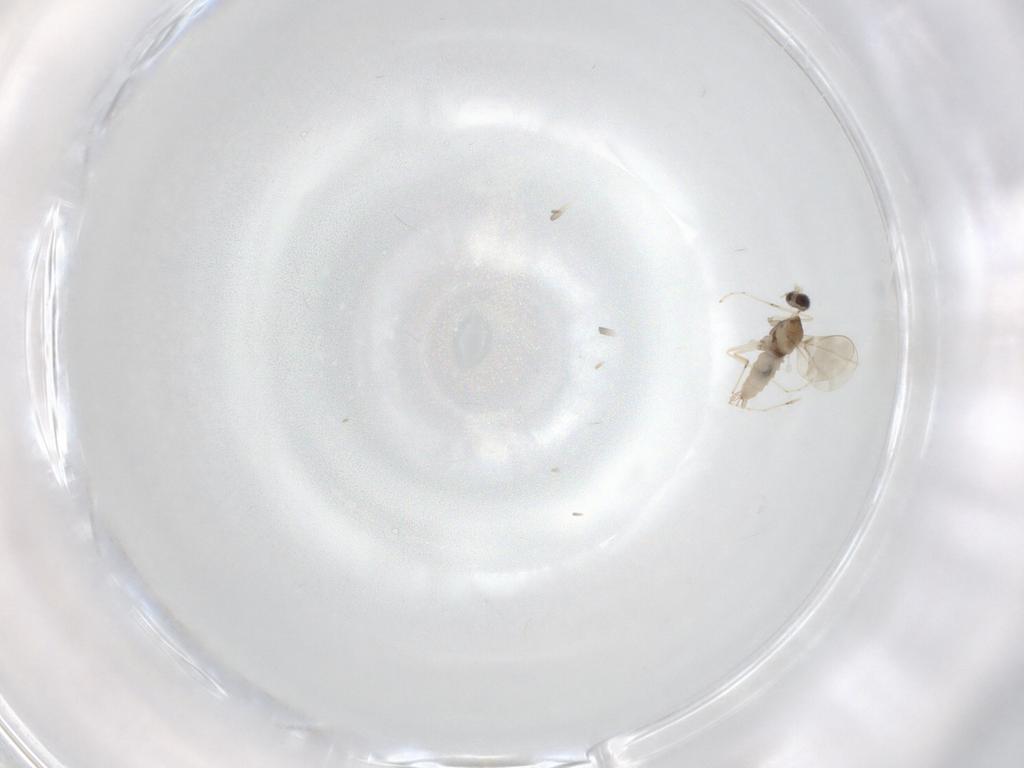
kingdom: Animalia
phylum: Arthropoda
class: Insecta
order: Diptera
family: Cecidomyiidae
